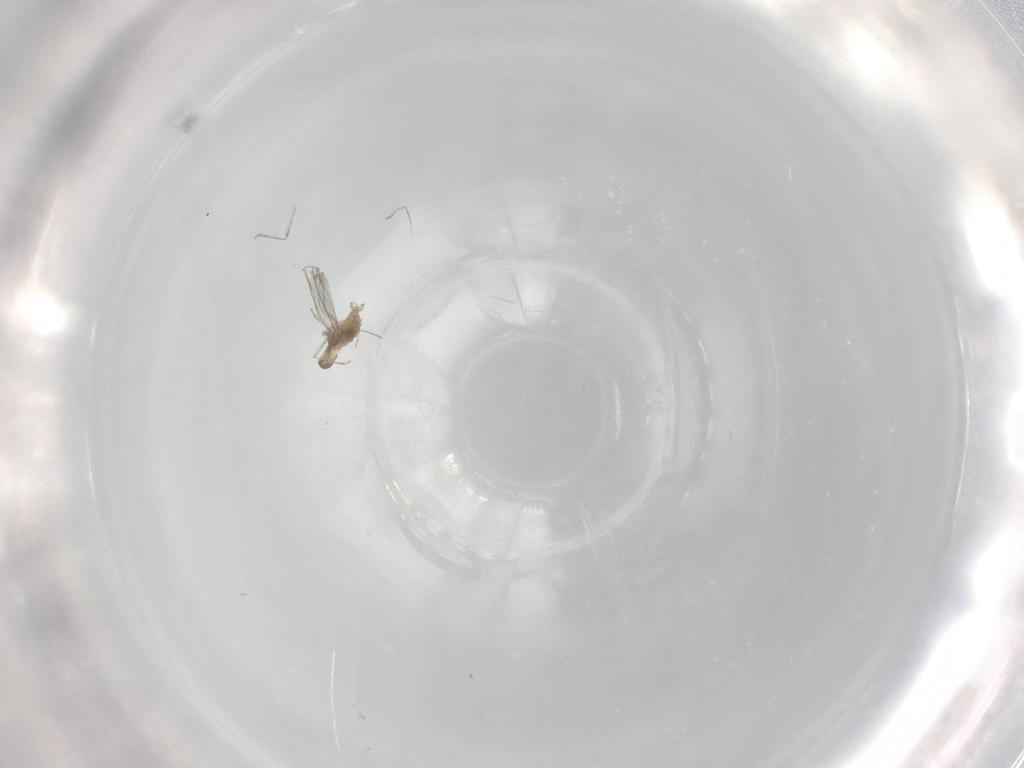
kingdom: Animalia
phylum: Arthropoda
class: Insecta
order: Diptera
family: Cecidomyiidae
